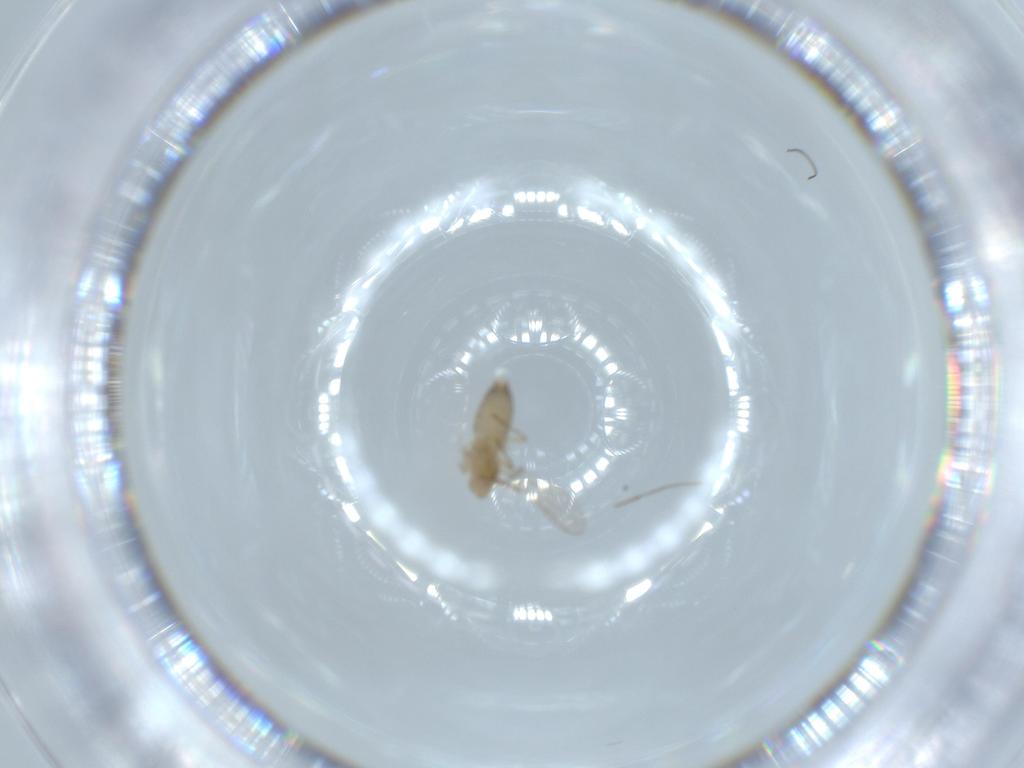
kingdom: Animalia
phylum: Arthropoda
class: Insecta
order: Diptera
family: Chironomidae
